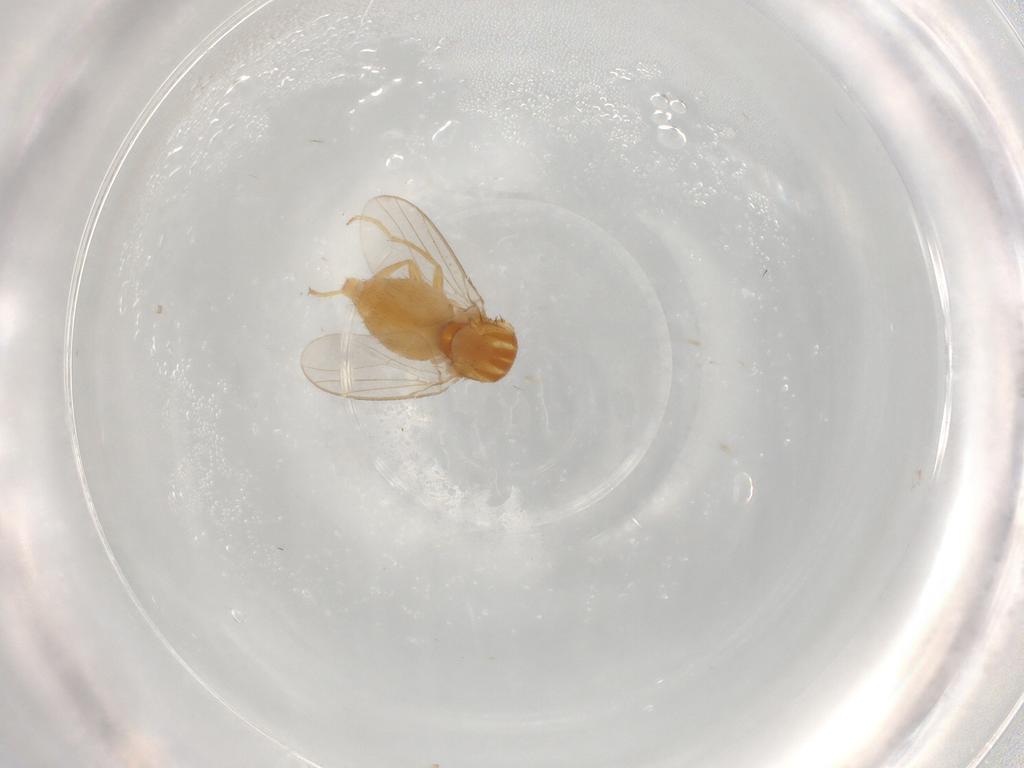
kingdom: Animalia
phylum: Arthropoda
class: Insecta
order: Diptera
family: Chloropidae
